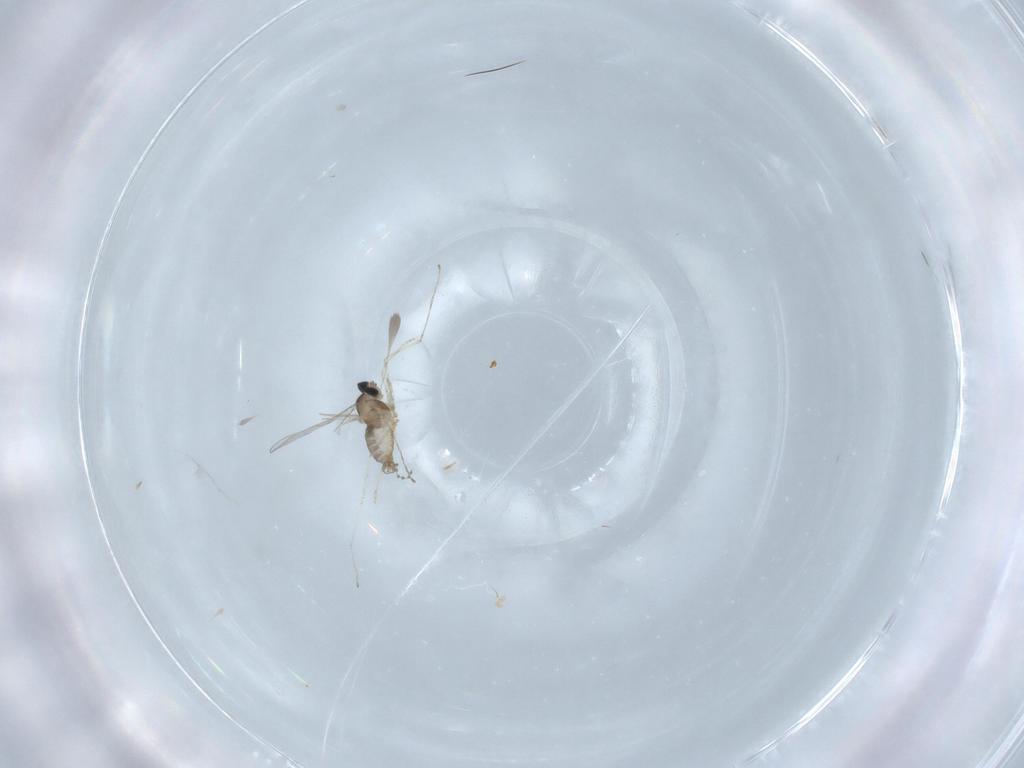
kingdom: Animalia
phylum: Arthropoda
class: Insecta
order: Diptera
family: Cecidomyiidae
